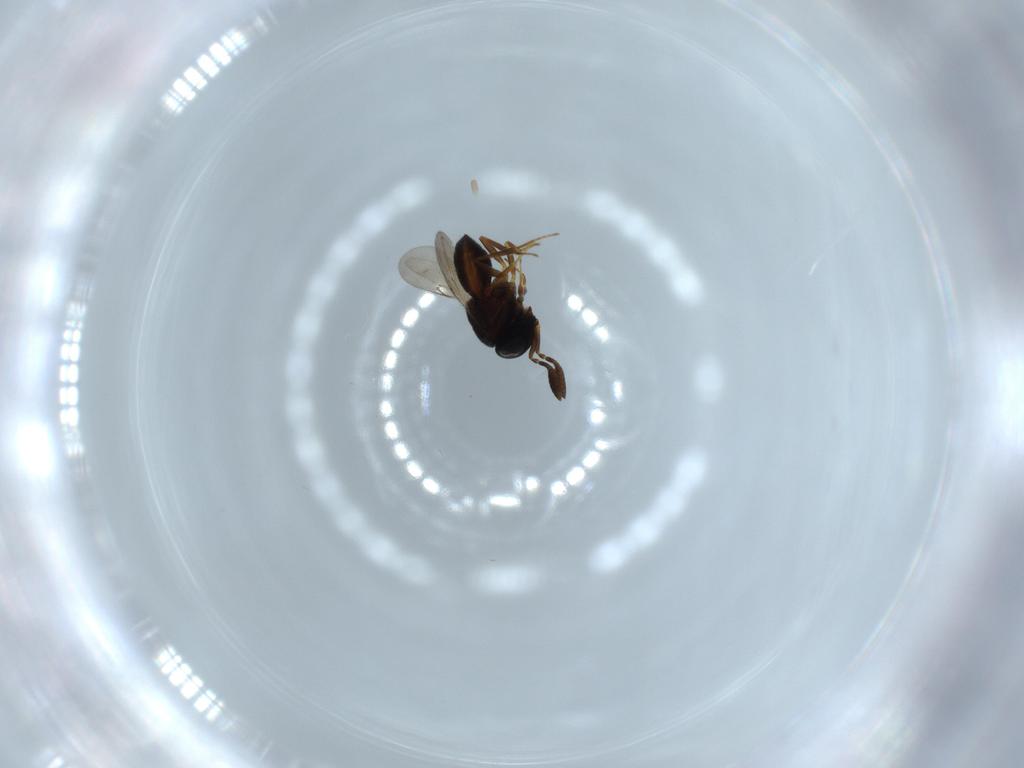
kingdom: Animalia
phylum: Arthropoda
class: Insecta
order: Hymenoptera
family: Scelionidae
